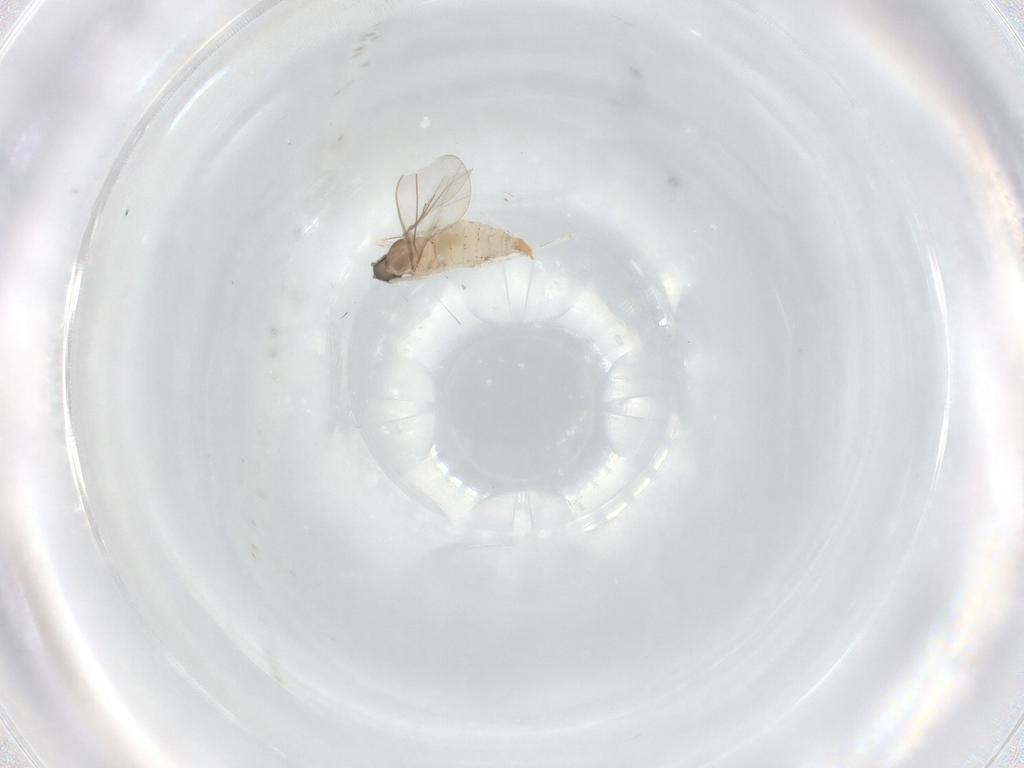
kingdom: Animalia
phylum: Arthropoda
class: Insecta
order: Diptera
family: Cecidomyiidae
